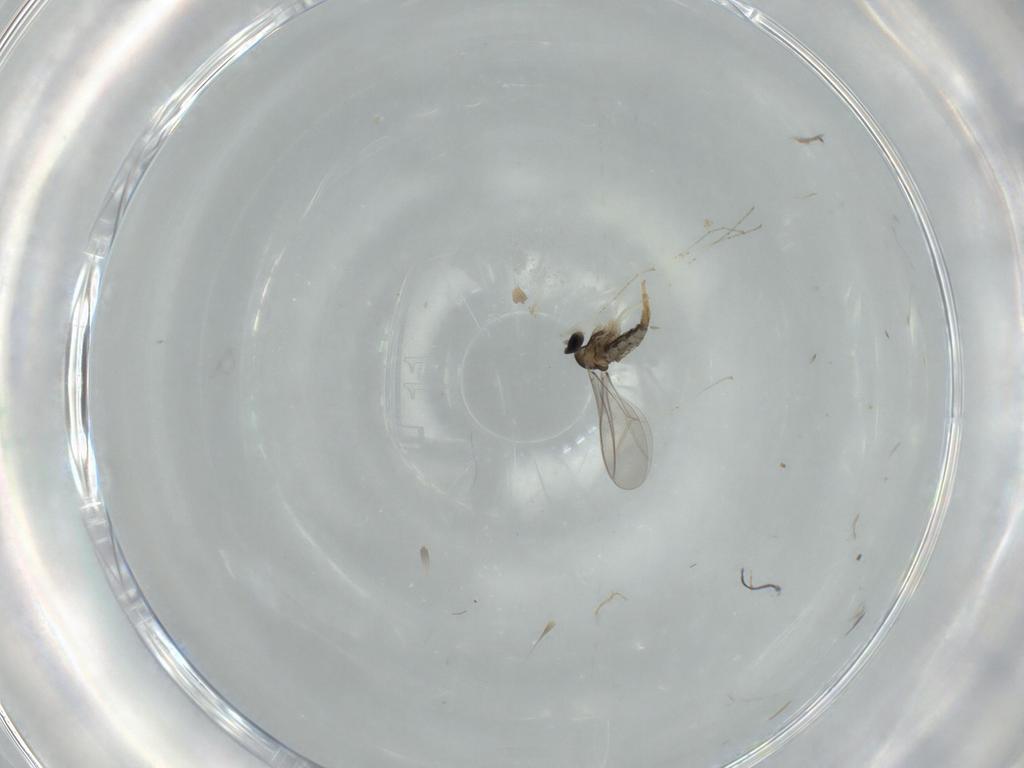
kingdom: Animalia
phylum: Arthropoda
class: Insecta
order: Diptera
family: Cecidomyiidae
